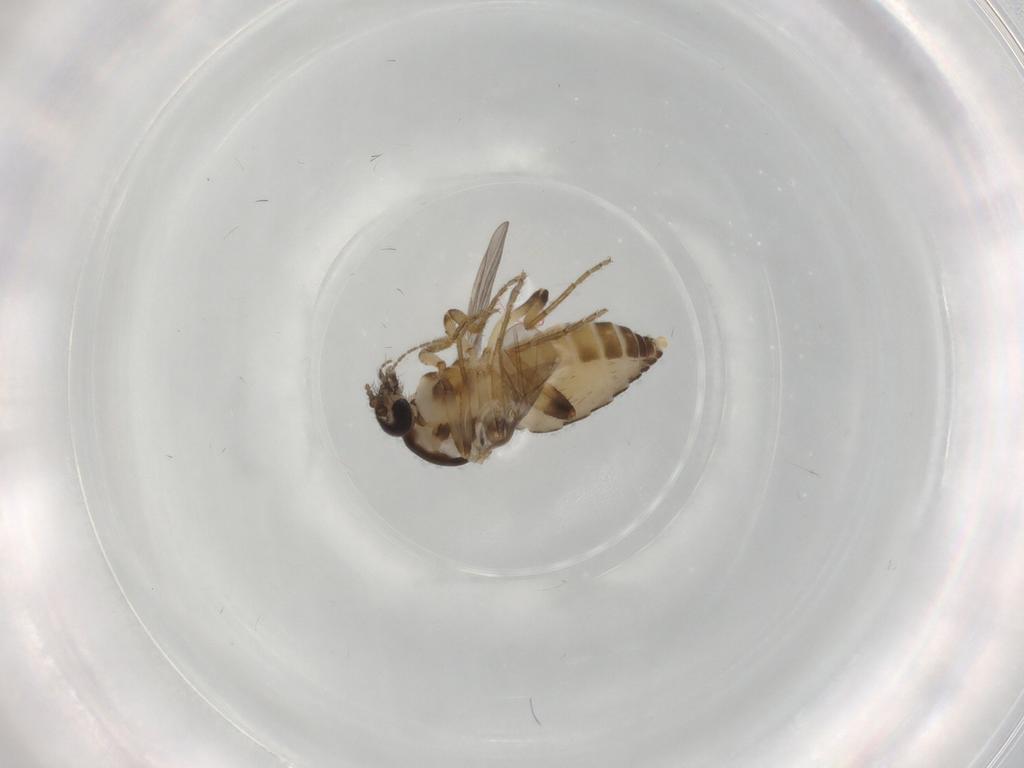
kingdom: Animalia
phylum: Arthropoda
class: Insecta
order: Diptera
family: Ceratopogonidae
